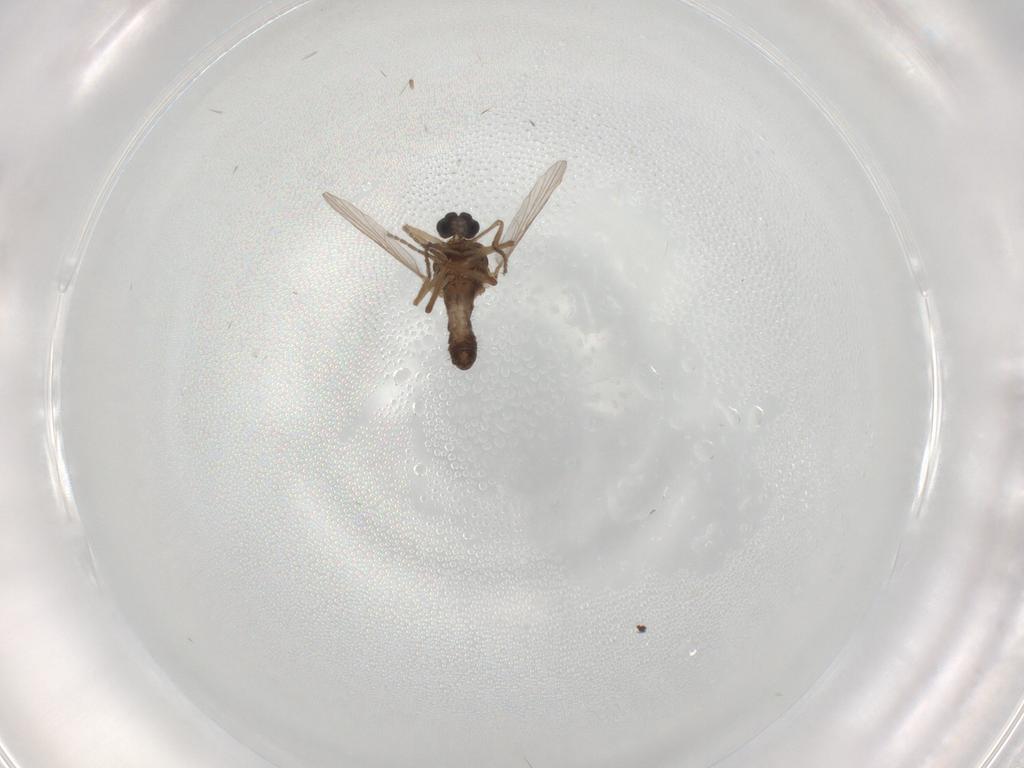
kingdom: Animalia
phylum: Arthropoda
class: Insecta
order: Diptera
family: Ceratopogonidae
